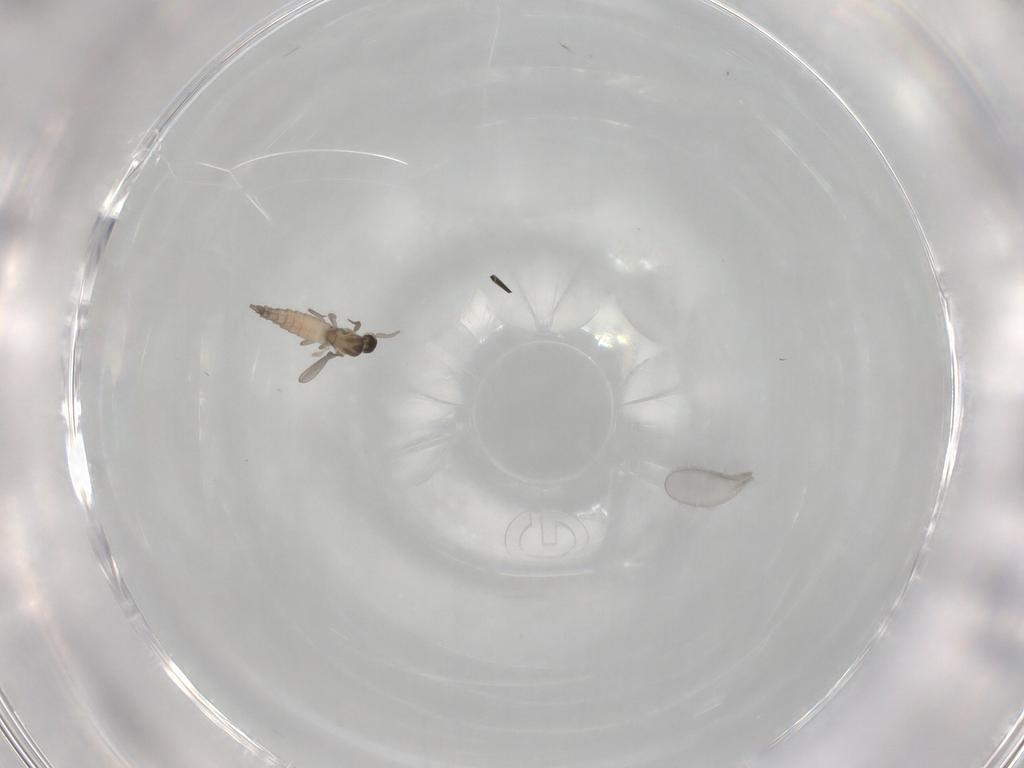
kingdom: Animalia
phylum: Arthropoda
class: Insecta
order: Diptera
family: Cecidomyiidae
